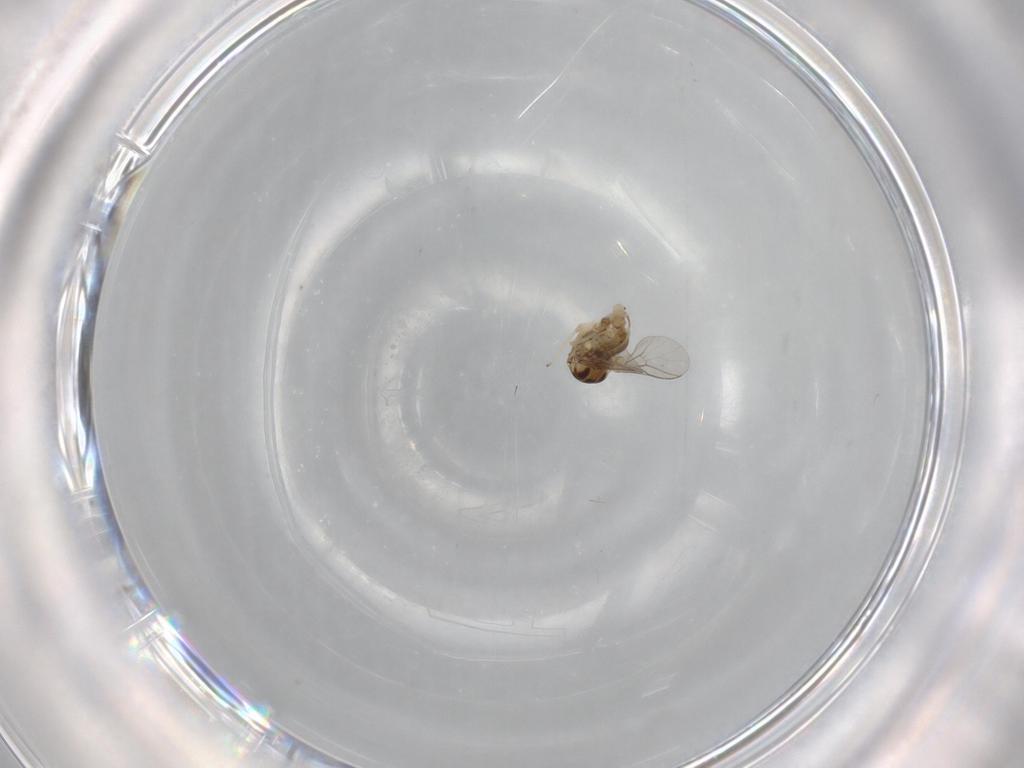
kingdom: Animalia
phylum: Arthropoda
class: Insecta
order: Diptera
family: Bombyliidae
